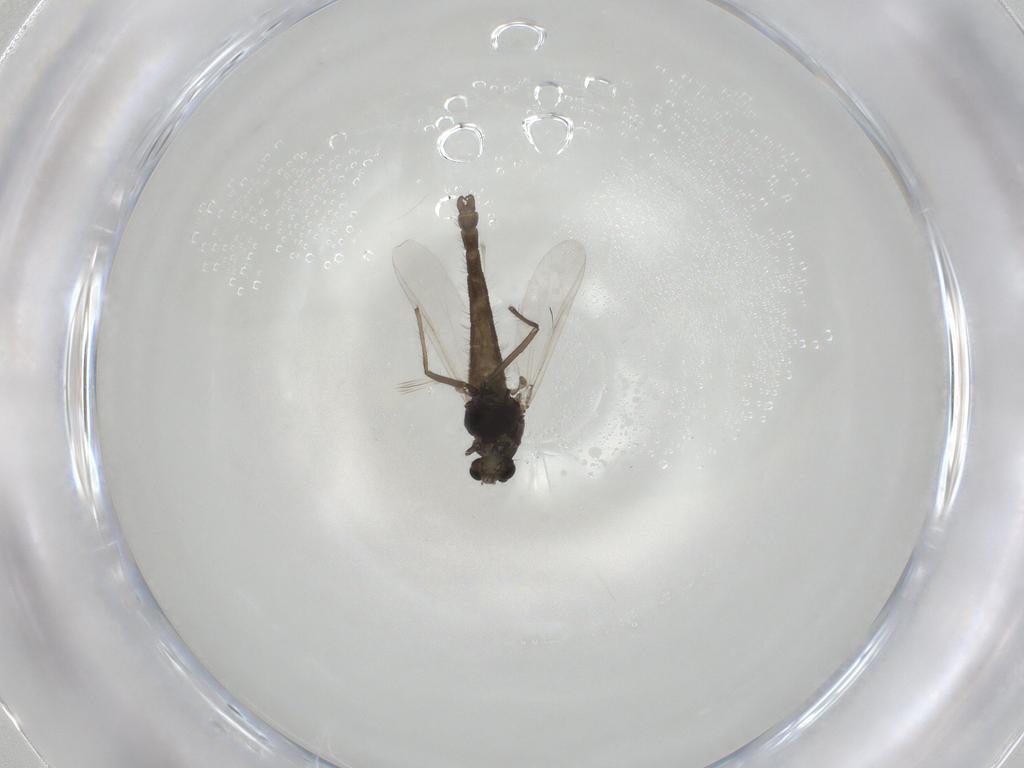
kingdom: Animalia
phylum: Arthropoda
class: Insecta
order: Diptera
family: Chironomidae
